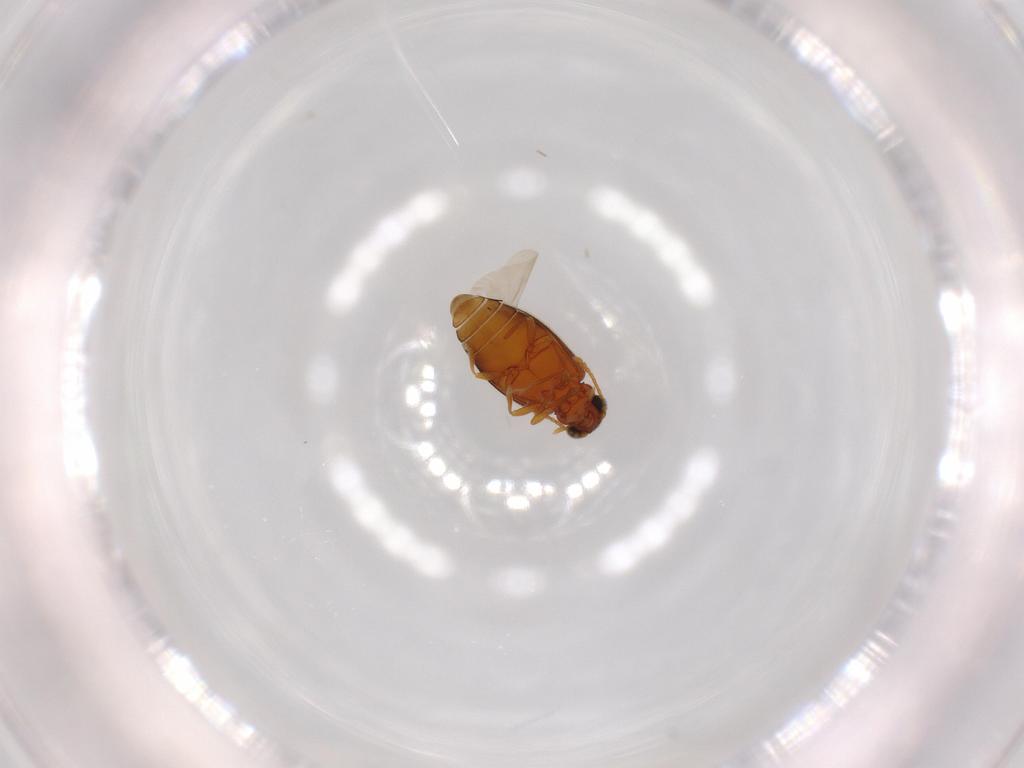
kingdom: Animalia
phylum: Arthropoda
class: Insecta
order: Coleoptera
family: Aderidae
